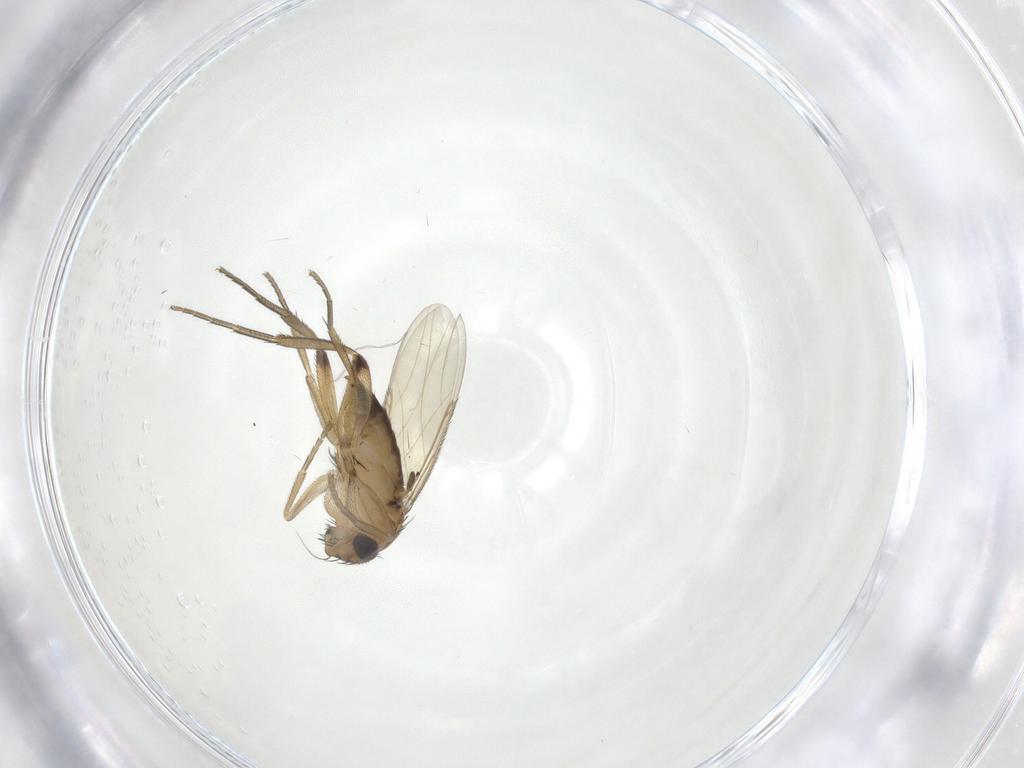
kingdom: Animalia
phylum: Arthropoda
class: Insecta
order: Diptera
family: Phoridae
